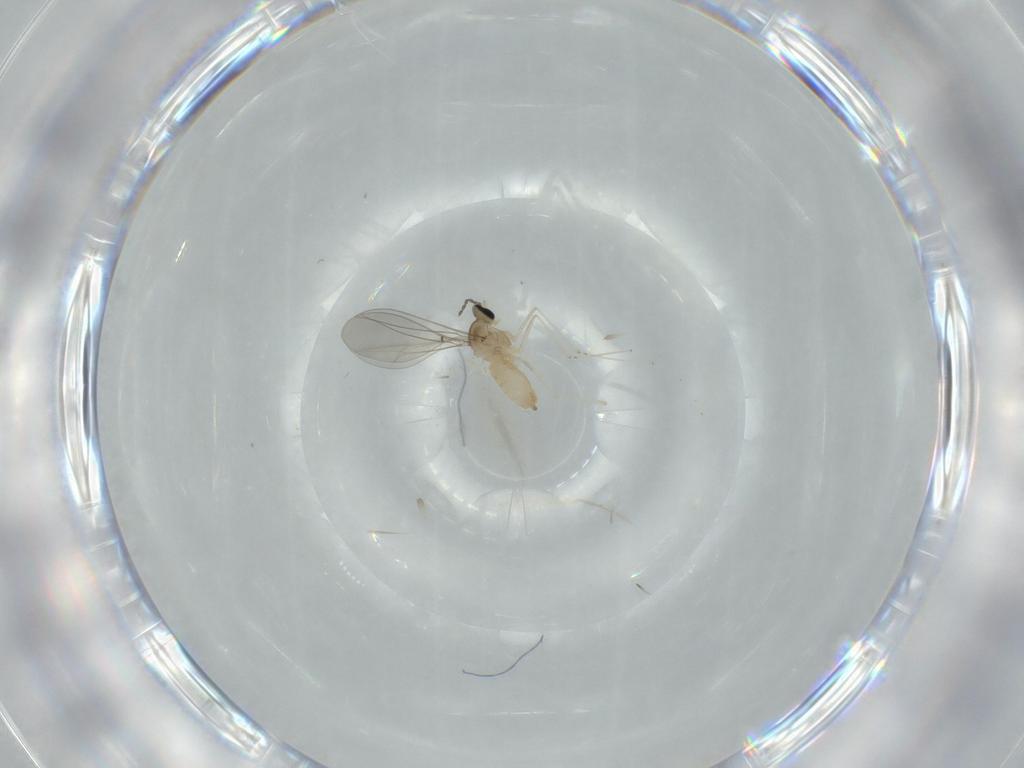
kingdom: Animalia
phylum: Arthropoda
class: Insecta
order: Diptera
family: Cecidomyiidae
